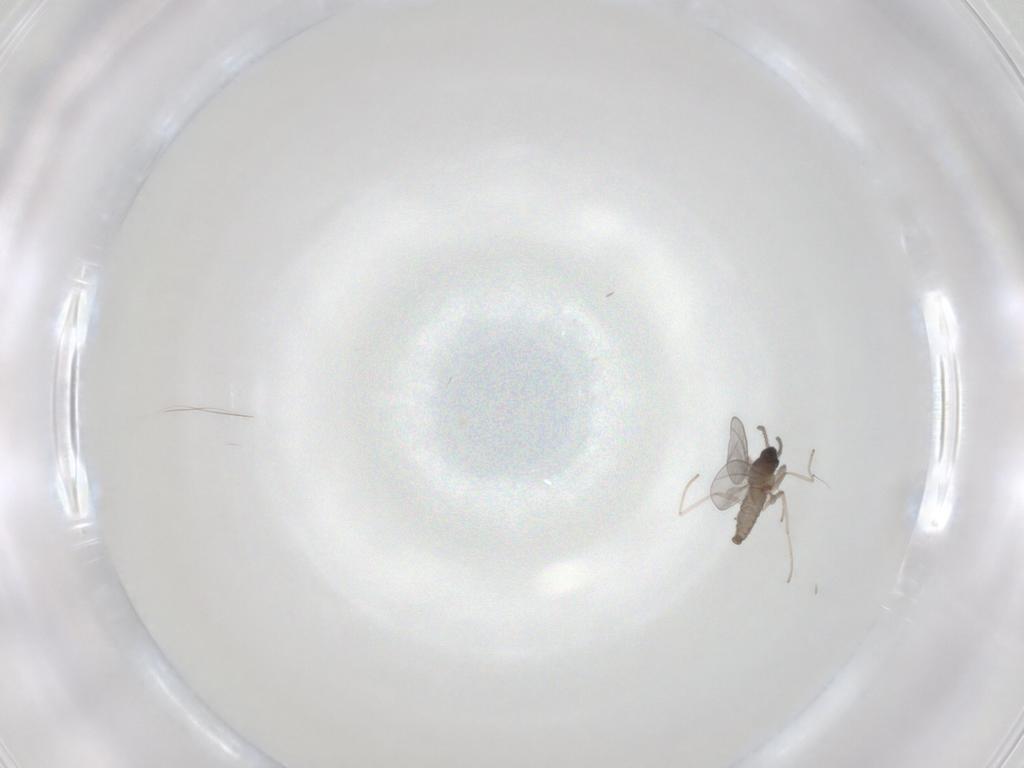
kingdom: Animalia
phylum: Arthropoda
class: Insecta
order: Diptera
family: Cecidomyiidae
